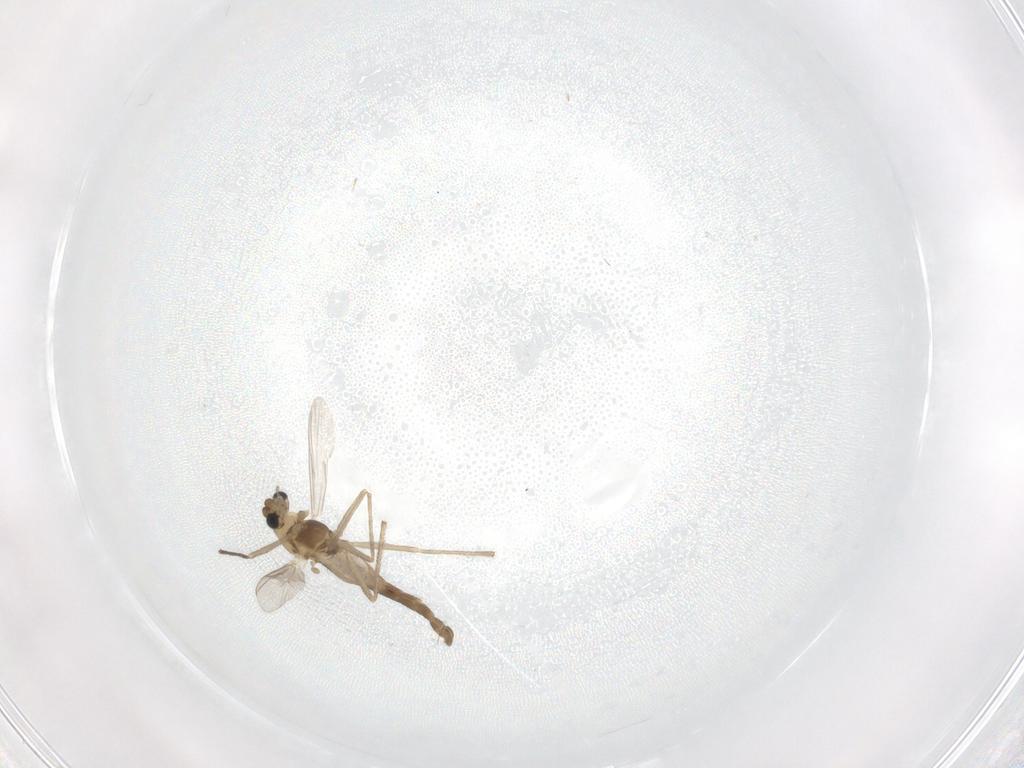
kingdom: Animalia
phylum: Arthropoda
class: Insecta
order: Diptera
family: Chironomidae
